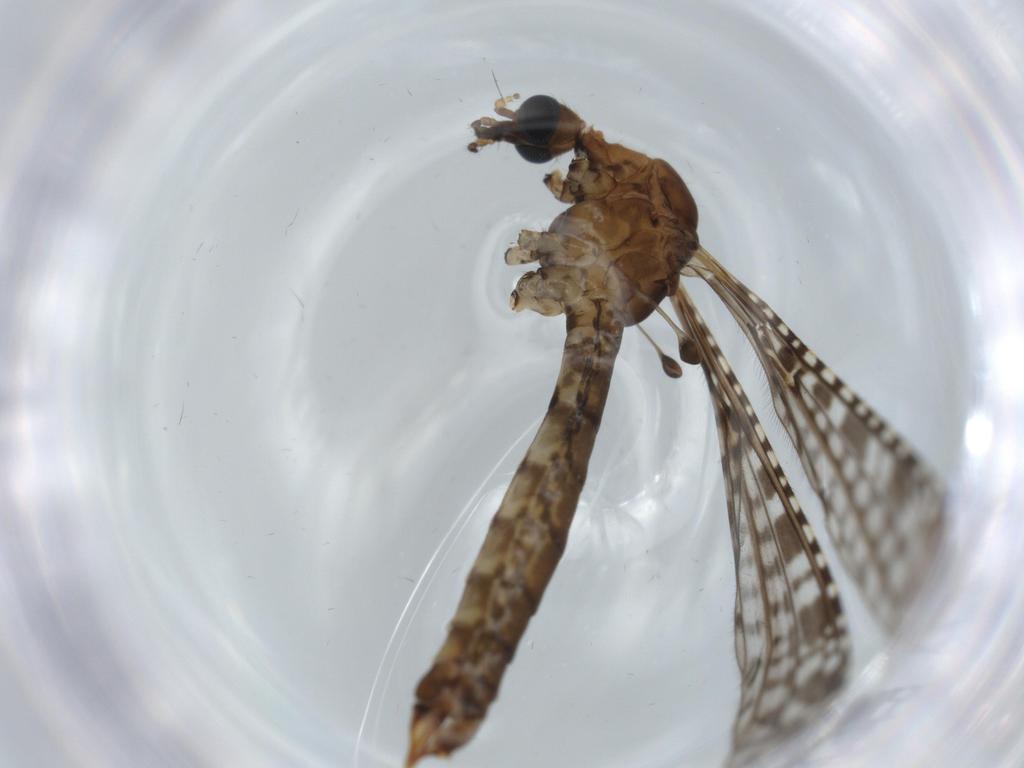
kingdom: Animalia
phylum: Arthropoda
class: Insecta
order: Diptera
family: Limoniidae
